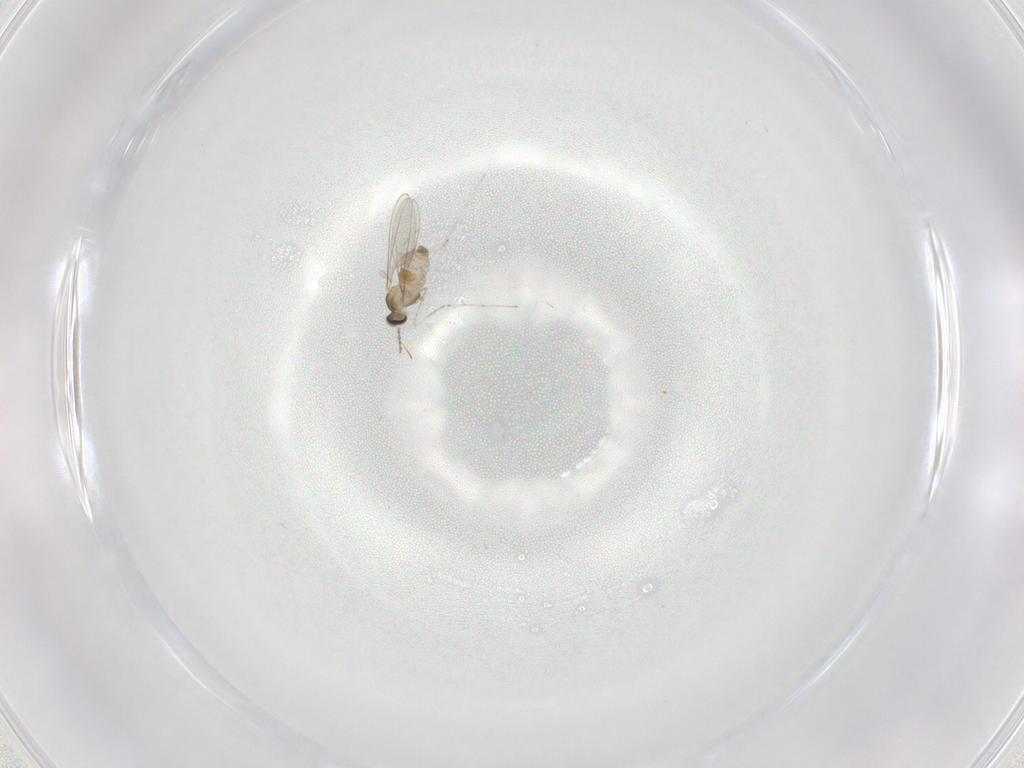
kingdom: Animalia
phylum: Arthropoda
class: Insecta
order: Diptera
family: Cecidomyiidae
